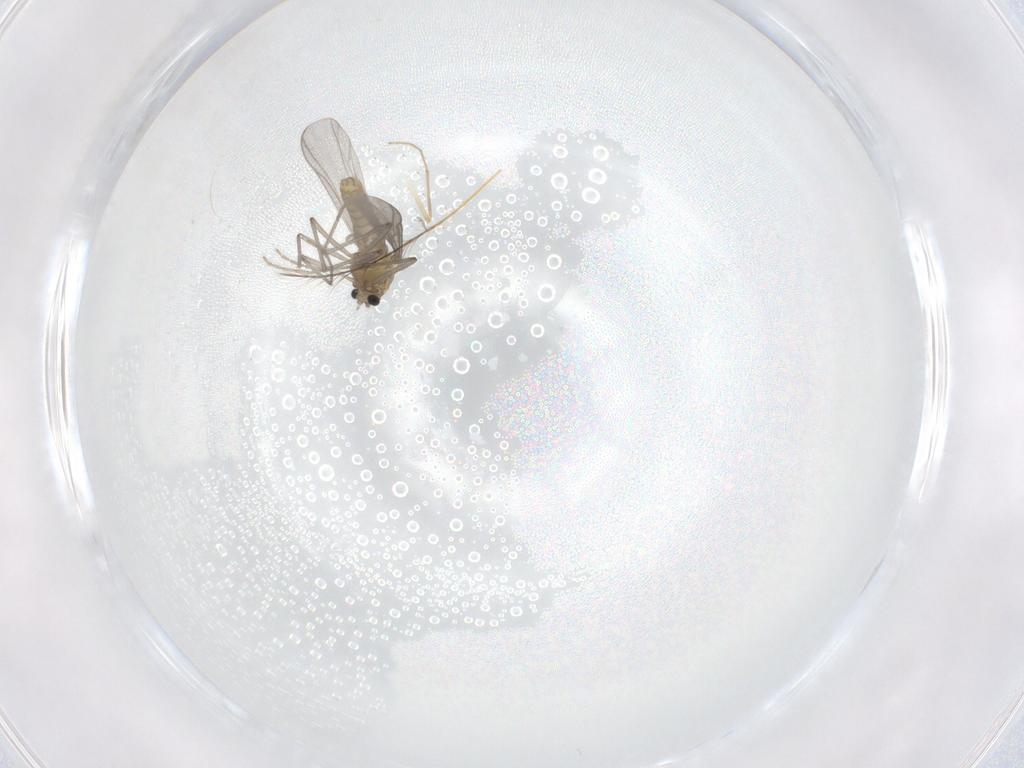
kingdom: Animalia
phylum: Arthropoda
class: Insecta
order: Diptera
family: Chironomidae
